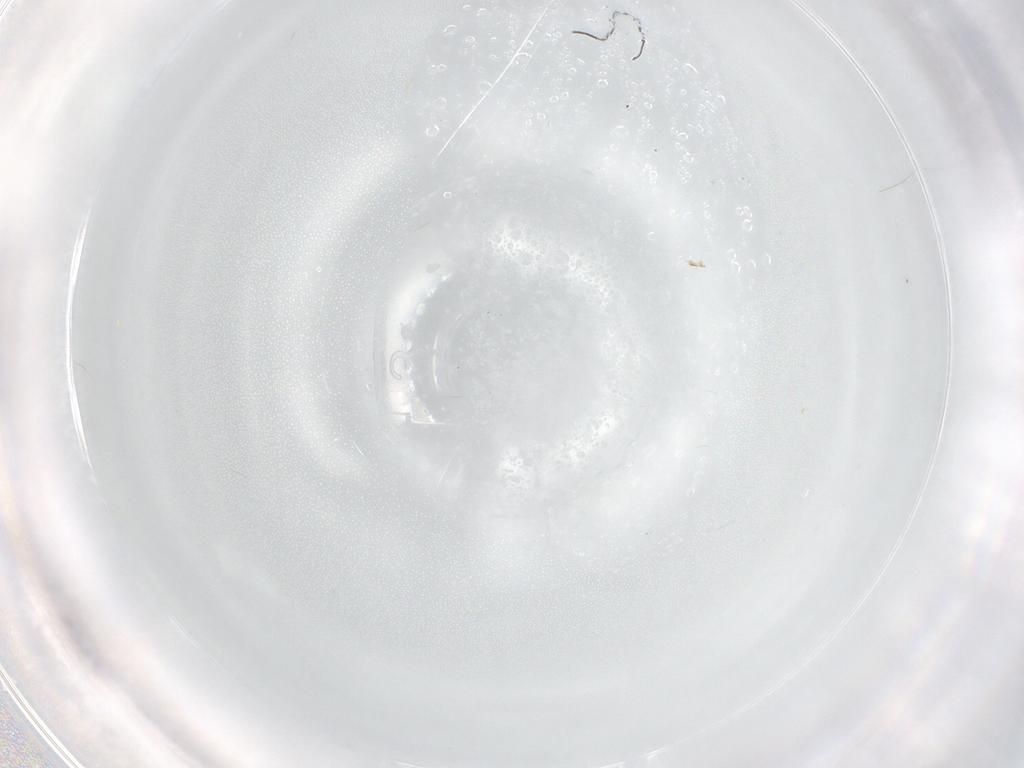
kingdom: Animalia
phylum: Arthropoda
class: Insecta
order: Diptera
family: Cecidomyiidae
